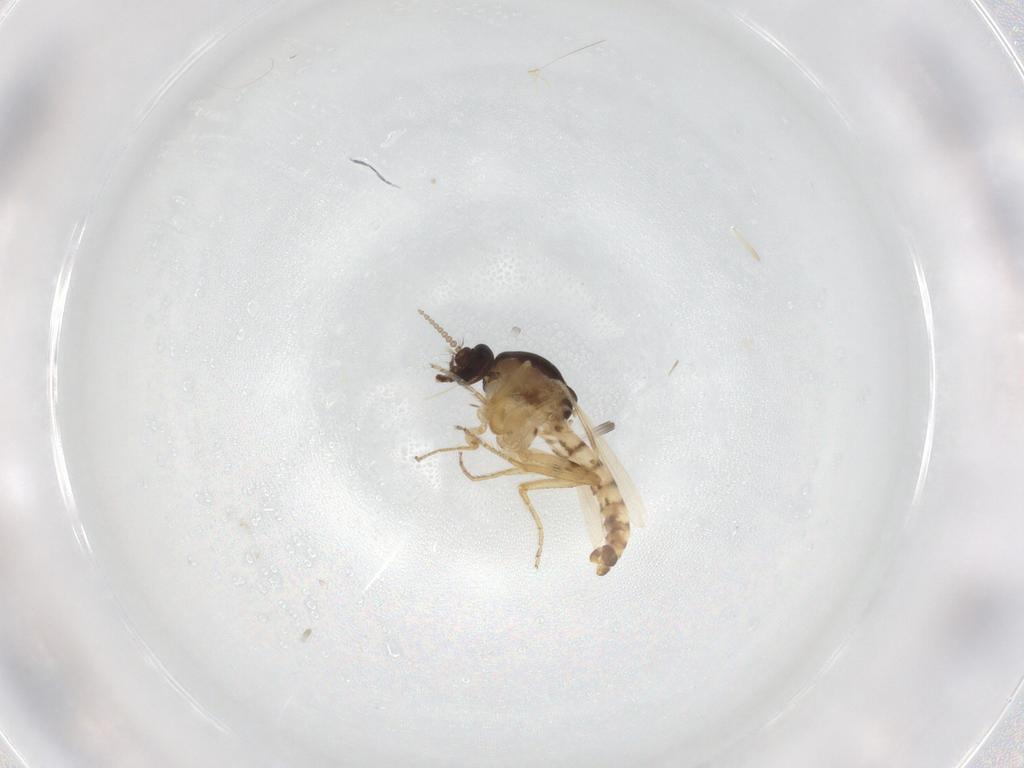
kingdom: Animalia
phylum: Arthropoda
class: Insecta
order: Diptera
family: Ceratopogonidae
